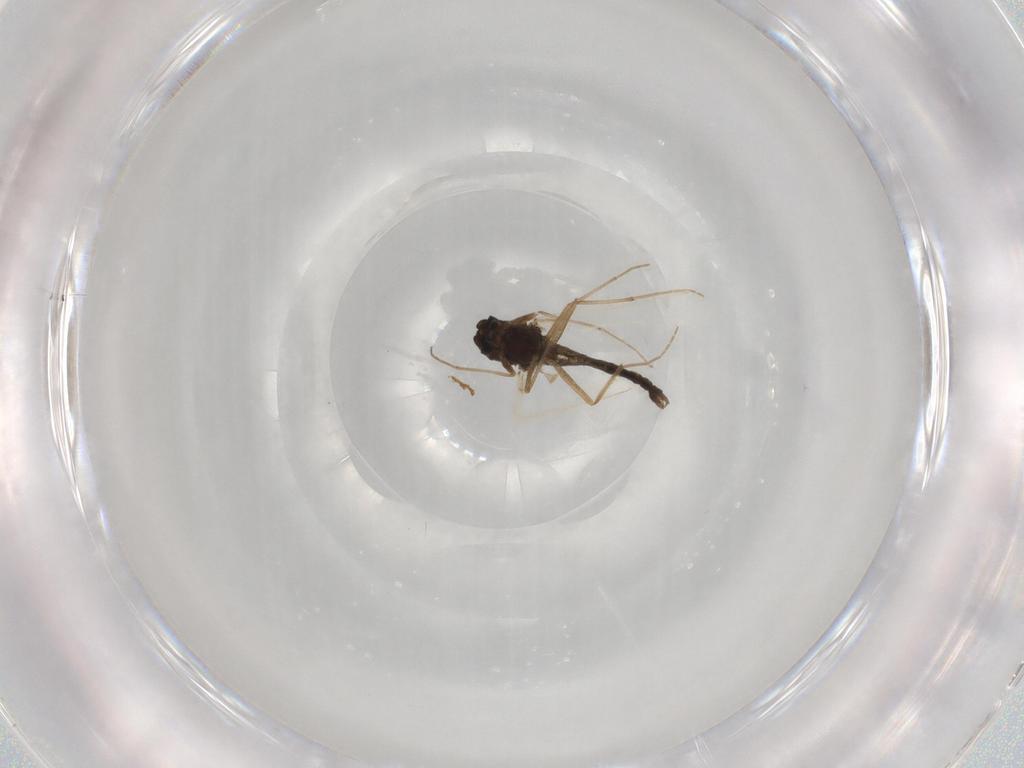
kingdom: Animalia
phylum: Arthropoda
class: Insecta
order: Diptera
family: Chironomidae
